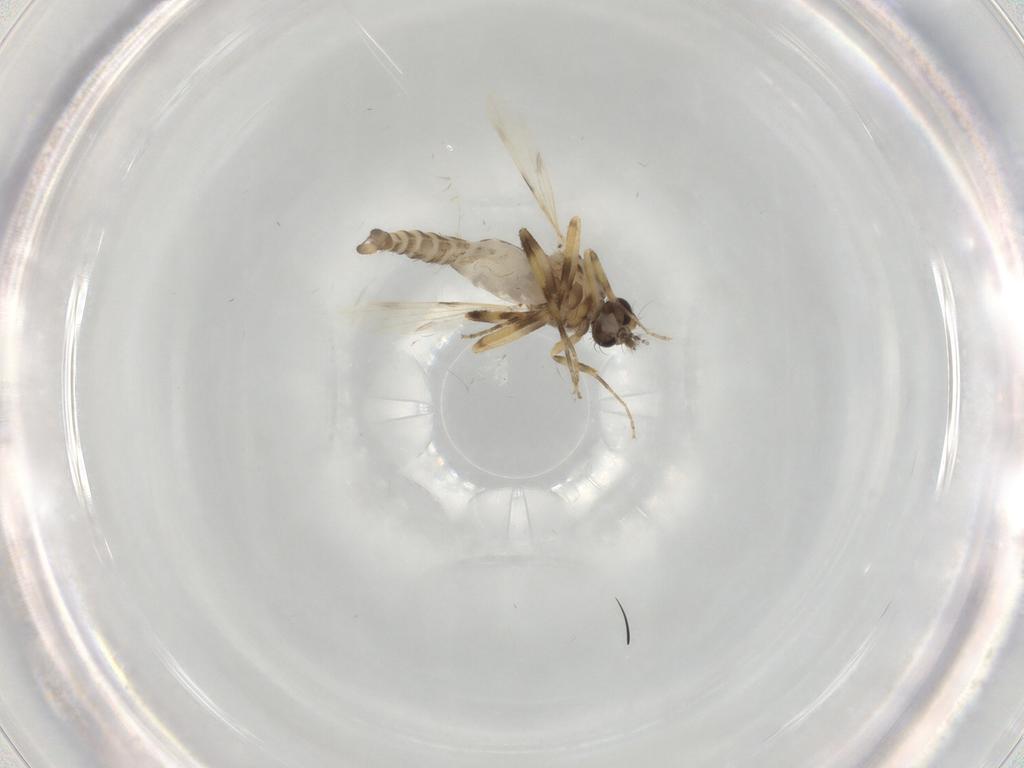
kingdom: Animalia
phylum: Arthropoda
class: Insecta
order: Diptera
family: Ceratopogonidae
